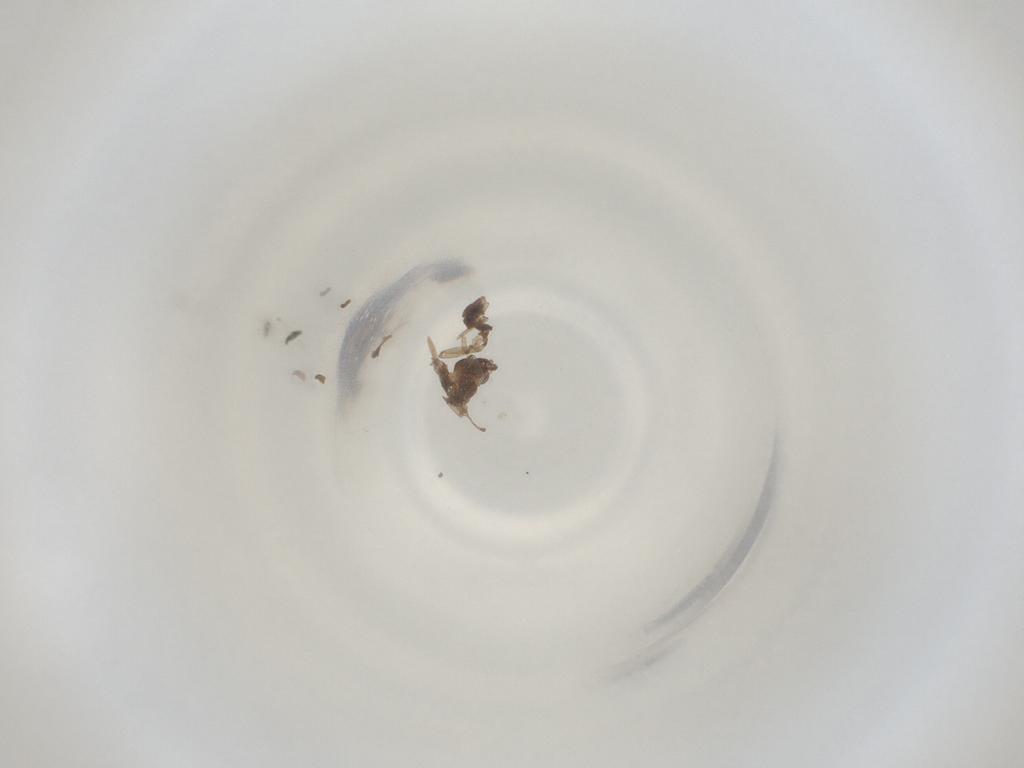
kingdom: Animalia
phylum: Arthropoda
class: Insecta
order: Diptera
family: Cecidomyiidae
